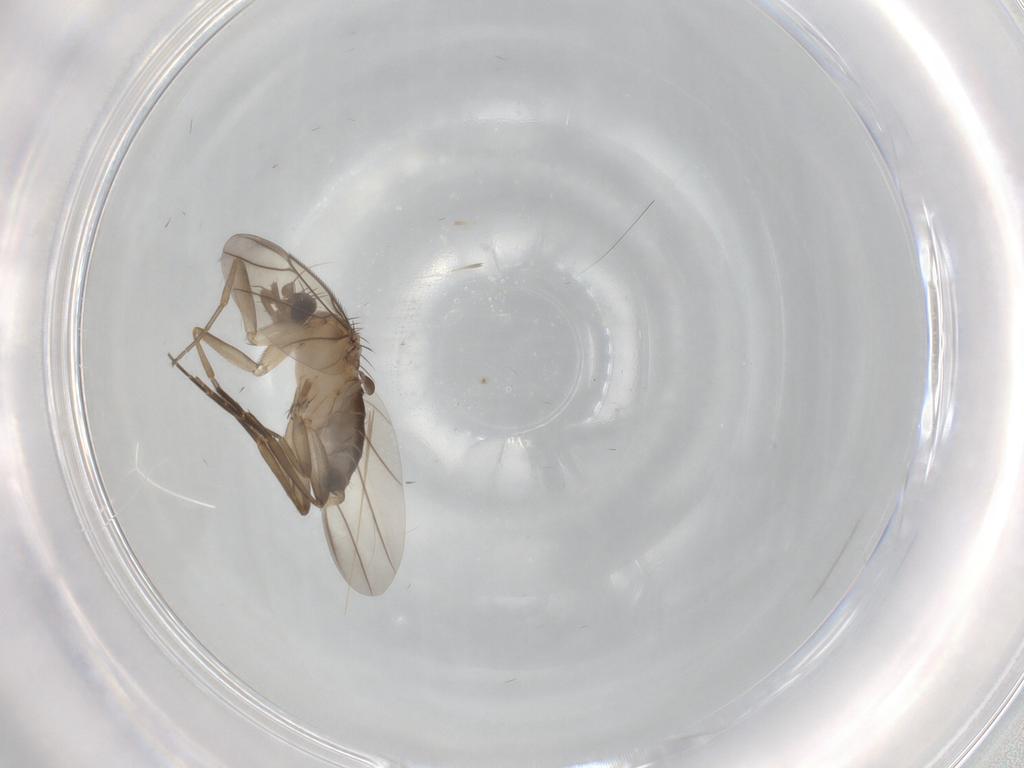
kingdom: Animalia
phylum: Arthropoda
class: Insecta
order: Diptera
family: Phoridae
